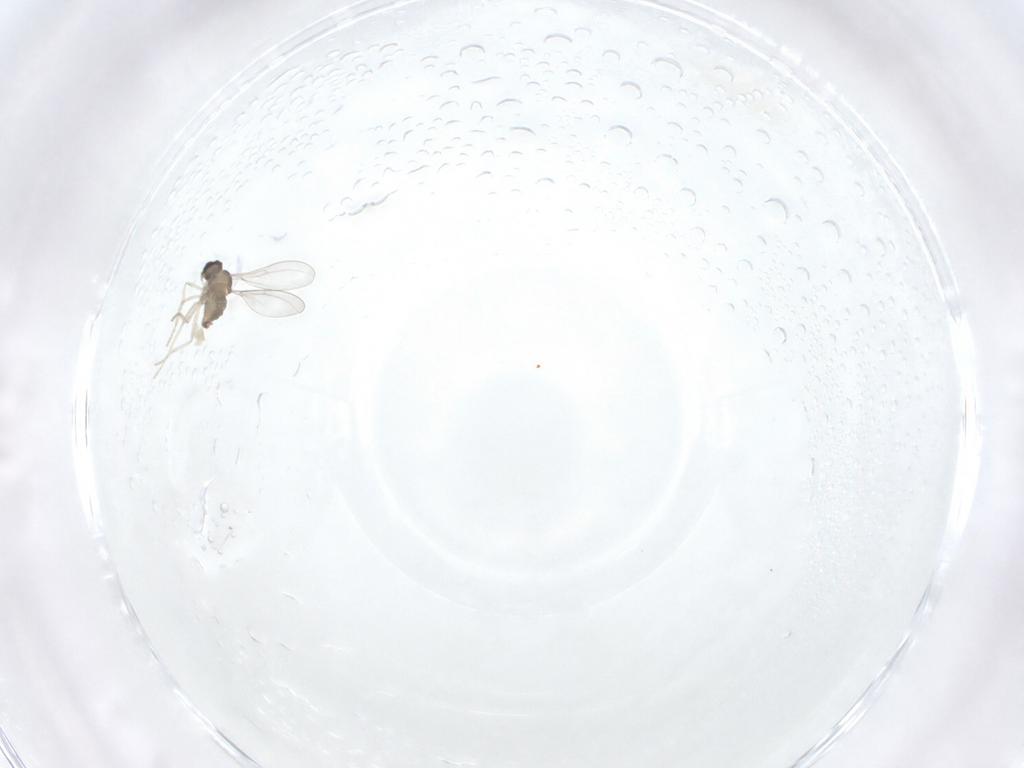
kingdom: Animalia
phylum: Arthropoda
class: Insecta
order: Diptera
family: Chironomidae
